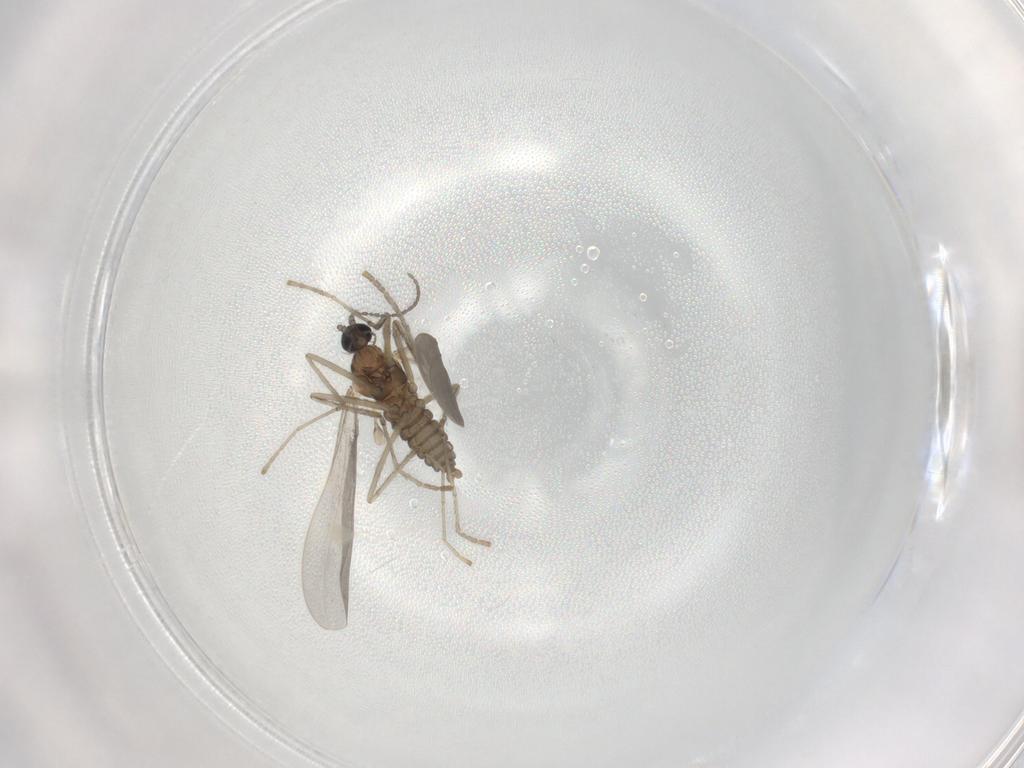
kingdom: Animalia
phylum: Arthropoda
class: Insecta
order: Diptera
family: Cecidomyiidae
